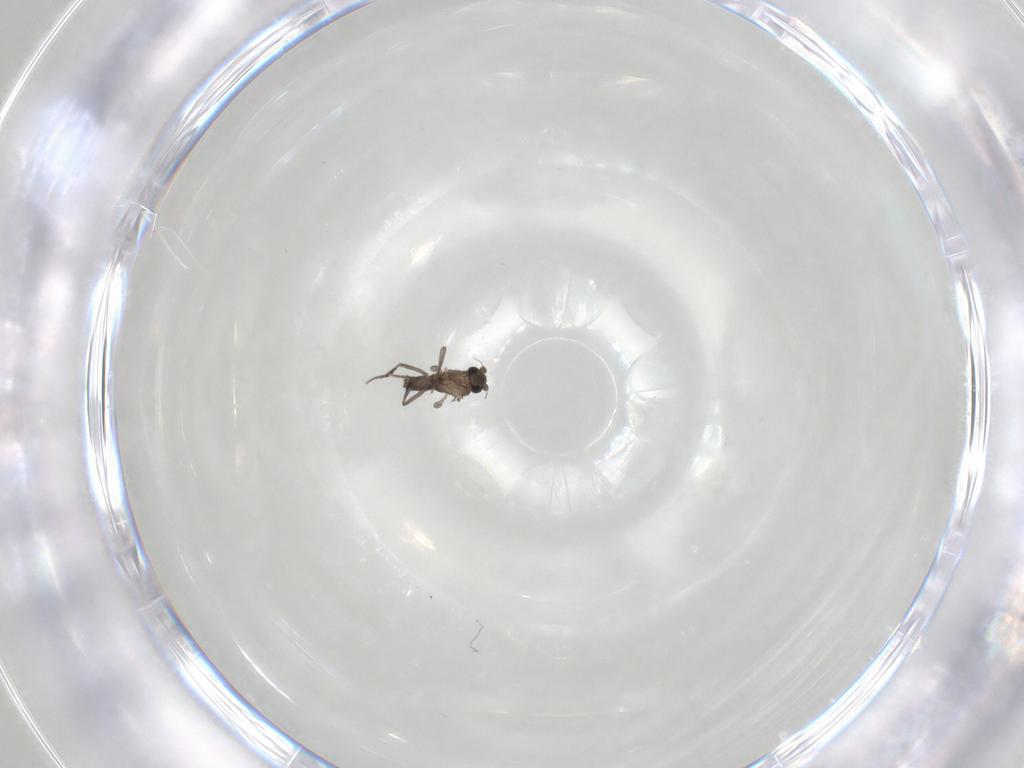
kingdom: Animalia
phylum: Arthropoda
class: Insecta
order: Diptera
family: Phoridae
